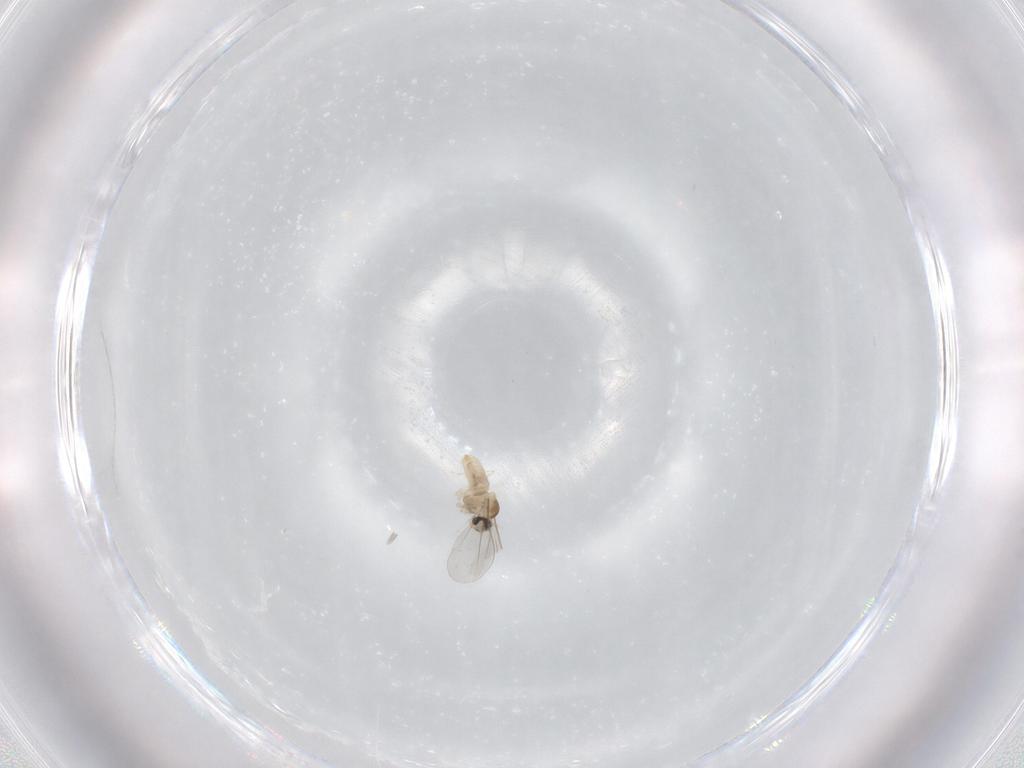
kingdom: Animalia
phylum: Arthropoda
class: Insecta
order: Diptera
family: Cecidomyiidae
